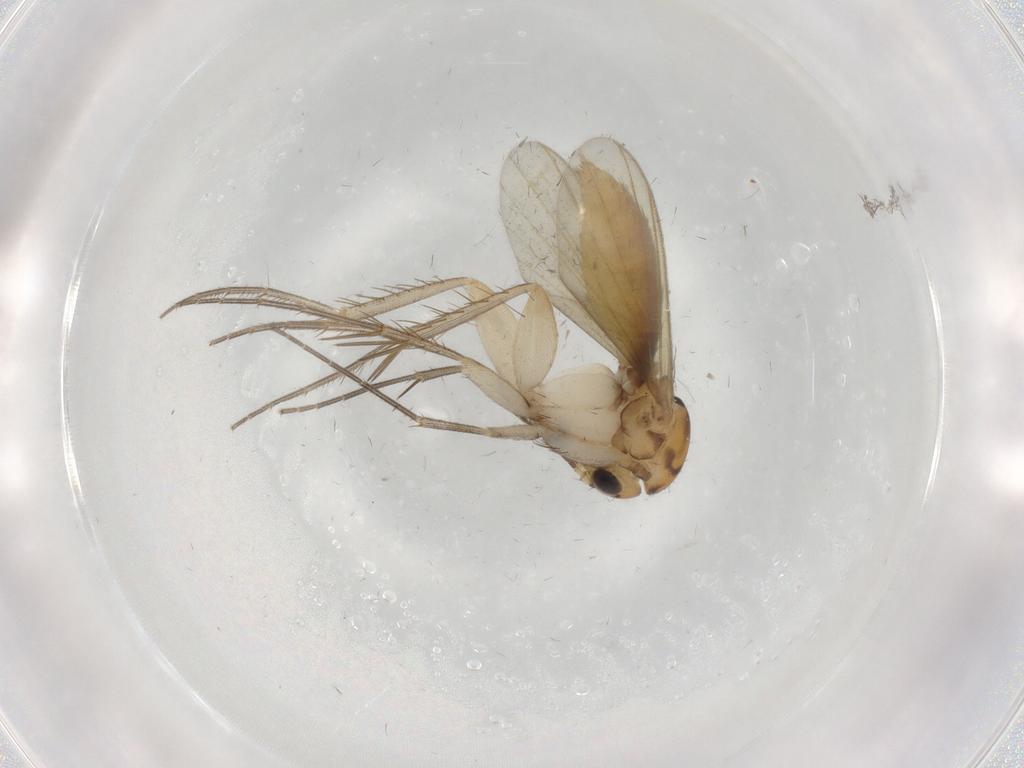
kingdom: Animalia
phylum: Arthropoda
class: Insecta
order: Diptera
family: Mycetophilidae
